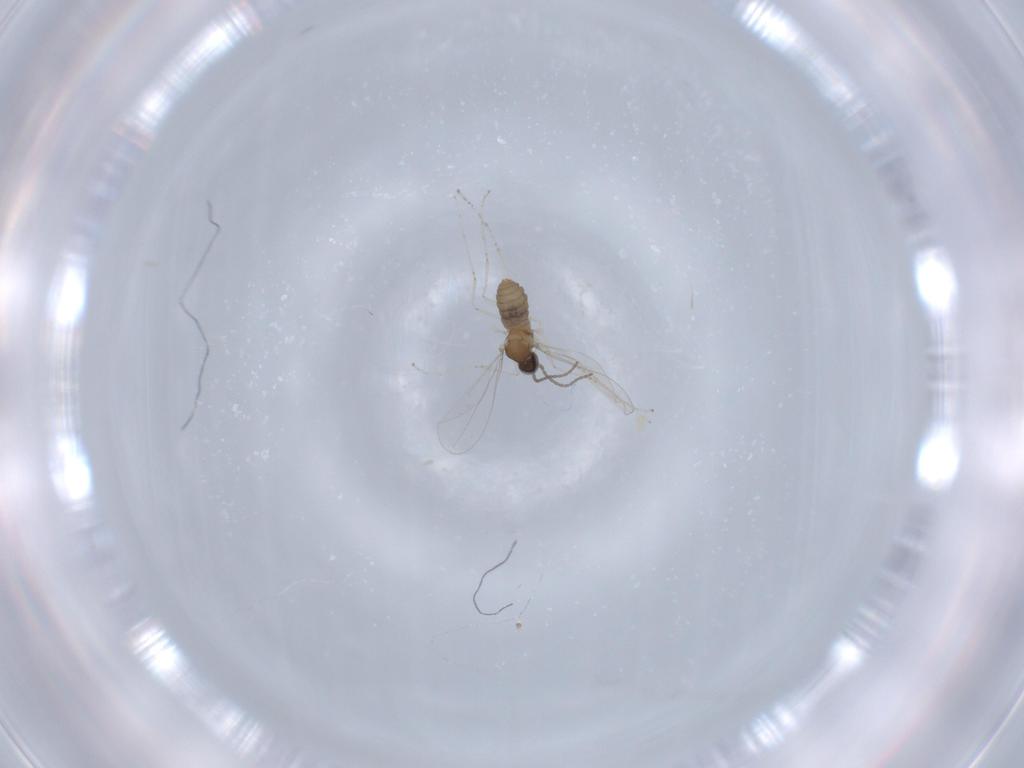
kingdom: Animalia
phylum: Arthropoda
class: Insecta
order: Diptera
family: Cecidomyiidae
